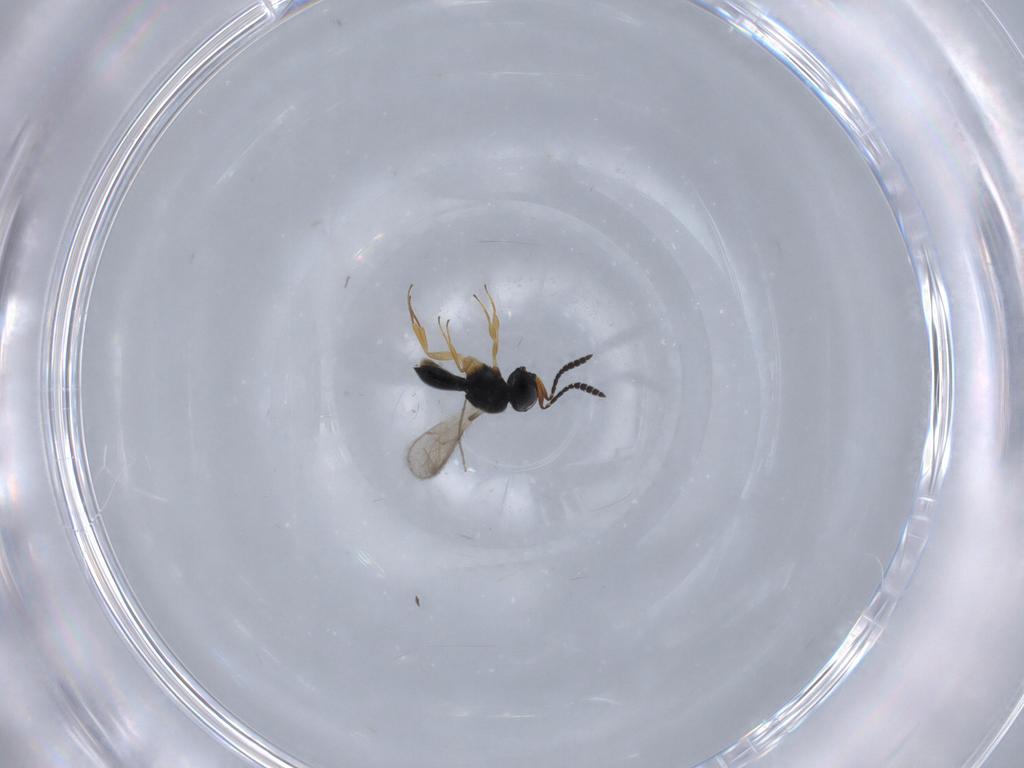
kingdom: Animalia
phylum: Arthropoda
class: Insecta
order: Hymenoptera
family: Scelionidae
